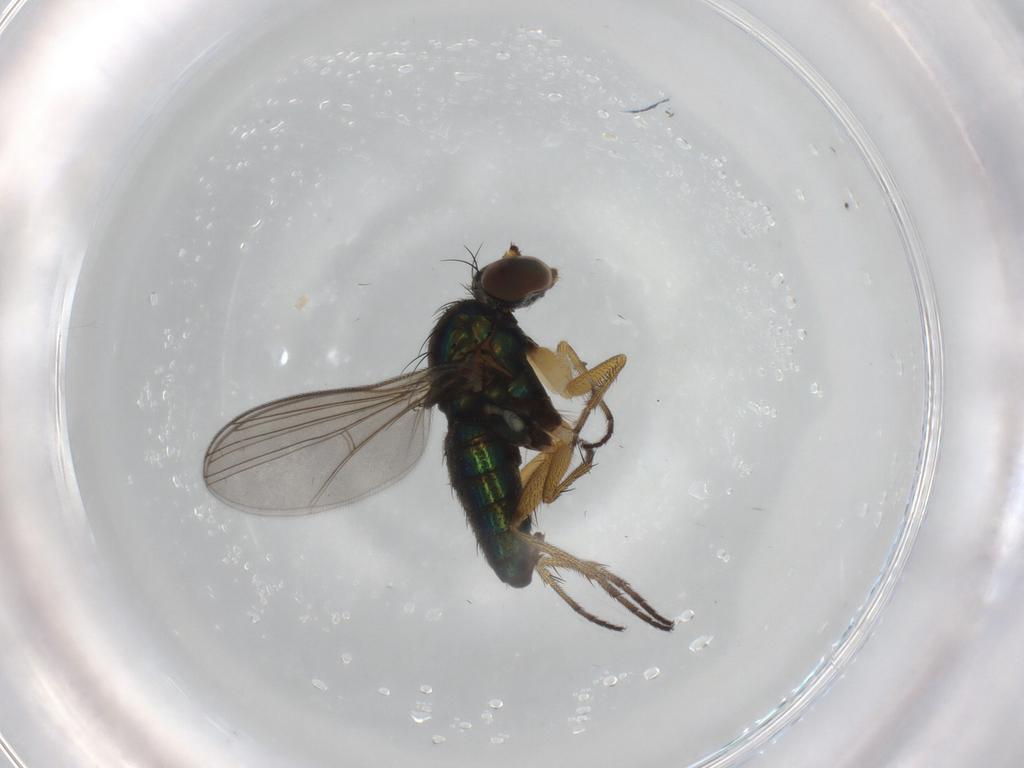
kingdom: Animalia
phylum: Arthropoda
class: Insecta
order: Diptera
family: Dolichopodidae
